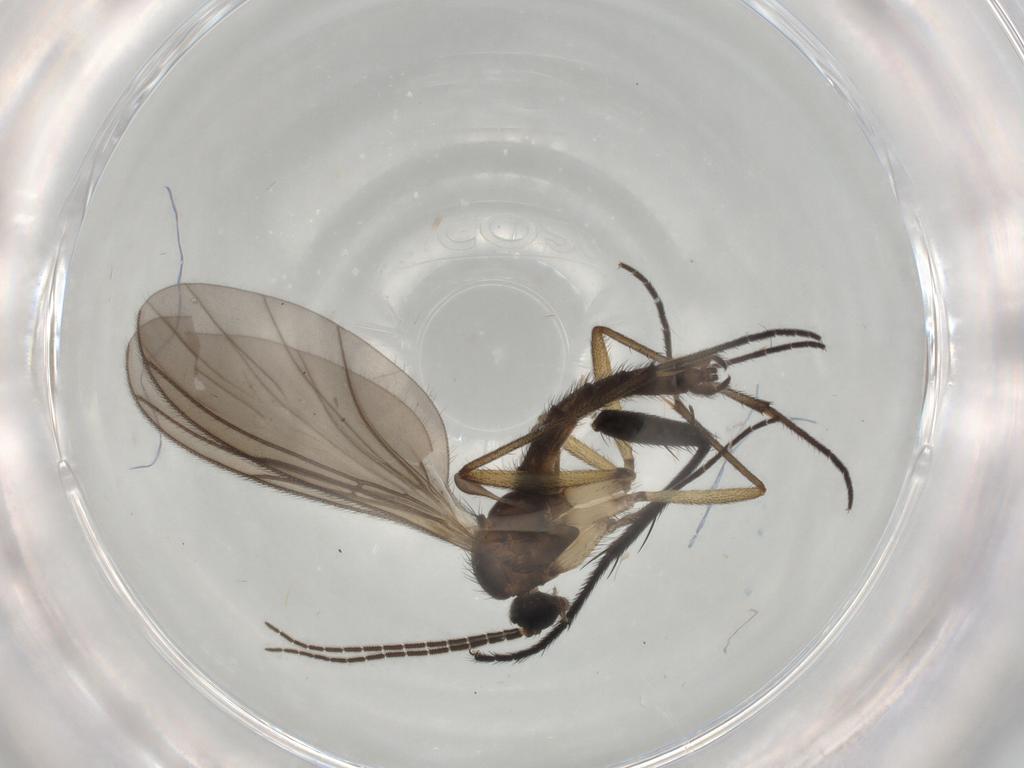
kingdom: Animalia
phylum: Arthropoda
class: Insecta
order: Diptera
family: Sciaridae
